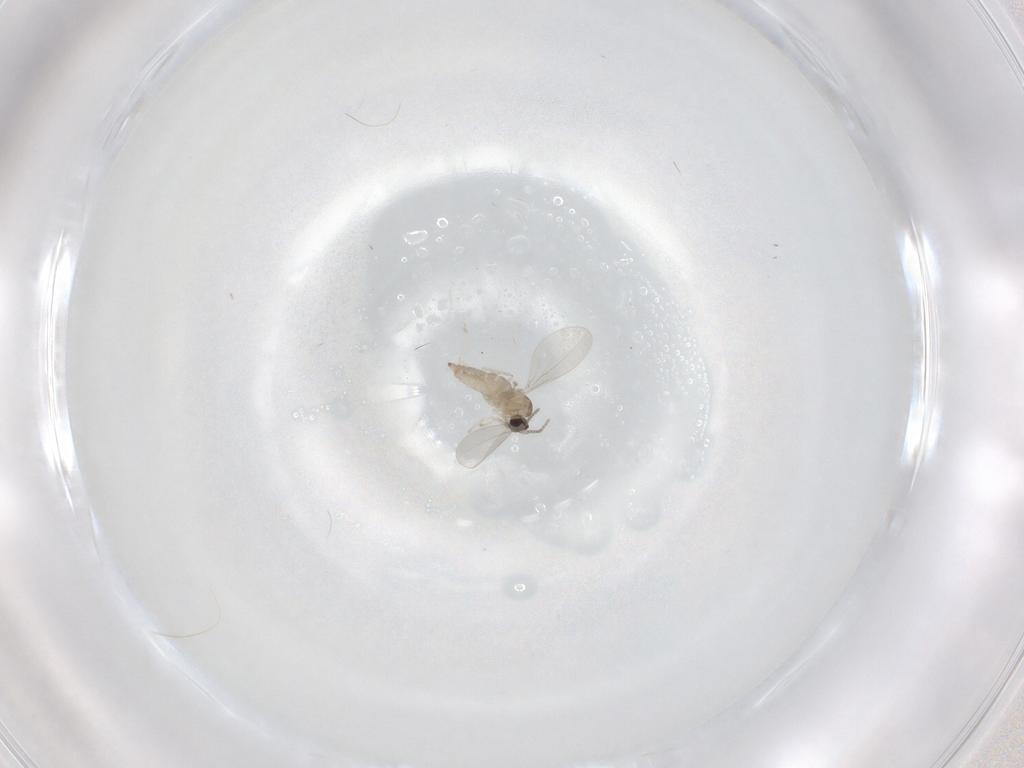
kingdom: Animalia
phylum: Arthropoda
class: Insecta
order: Diptera
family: Cecidomyiidae
